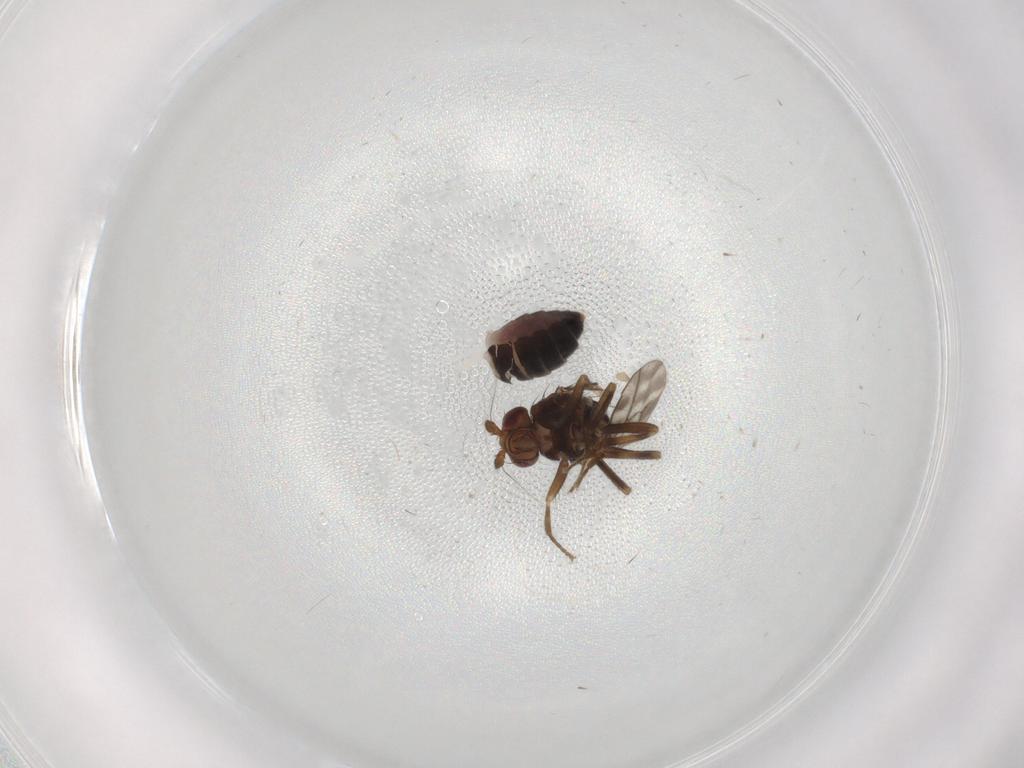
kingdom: Animalia
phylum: Arthropoda
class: Insecta
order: Diptera
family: Sphaeroceridae
